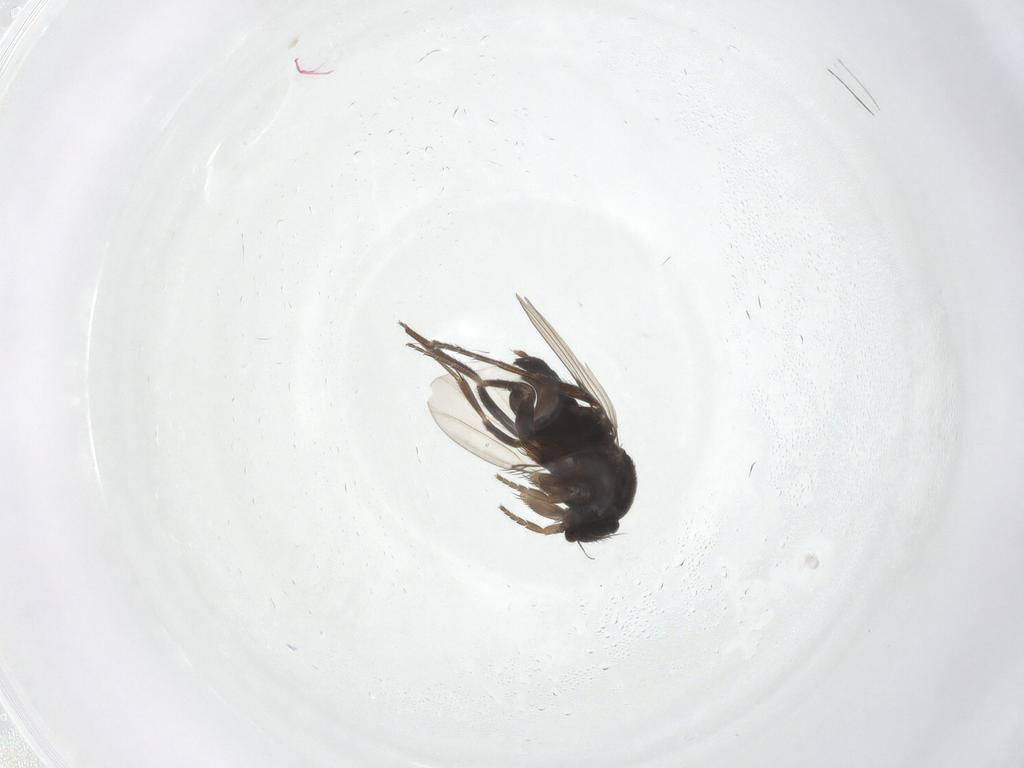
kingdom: Animalia
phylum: Arthropoda
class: Insecta
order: Diptera
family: Phoridae
